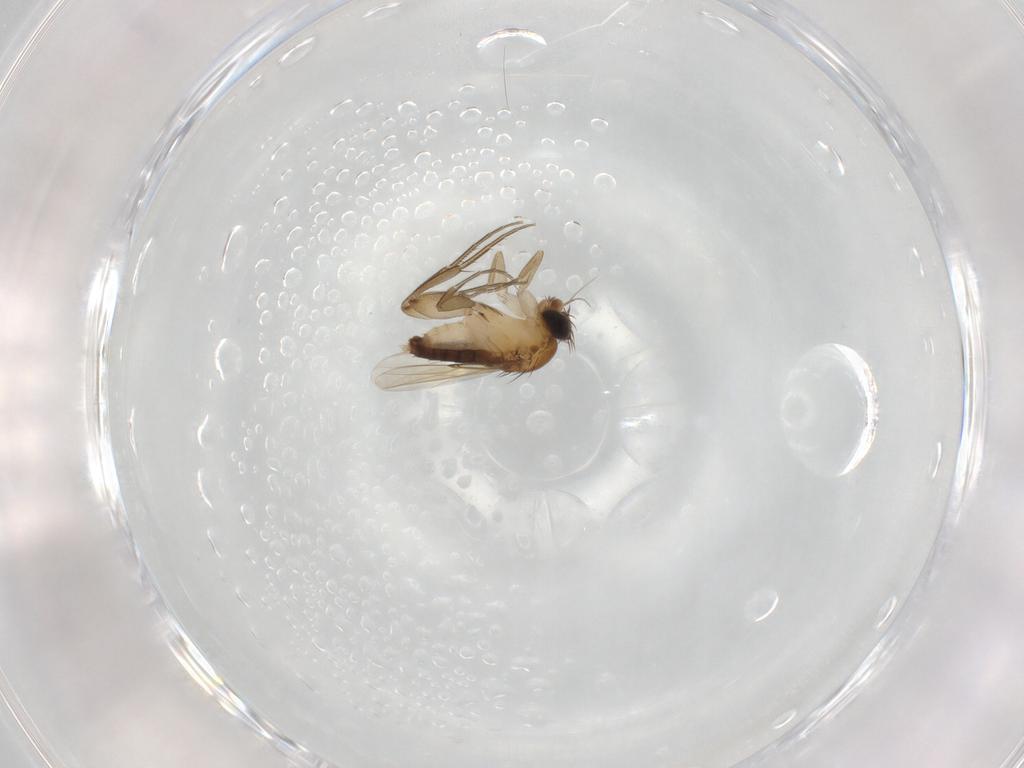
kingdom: Animalia
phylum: Arthropoda
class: Insecta
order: Diptera
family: Phoridae
